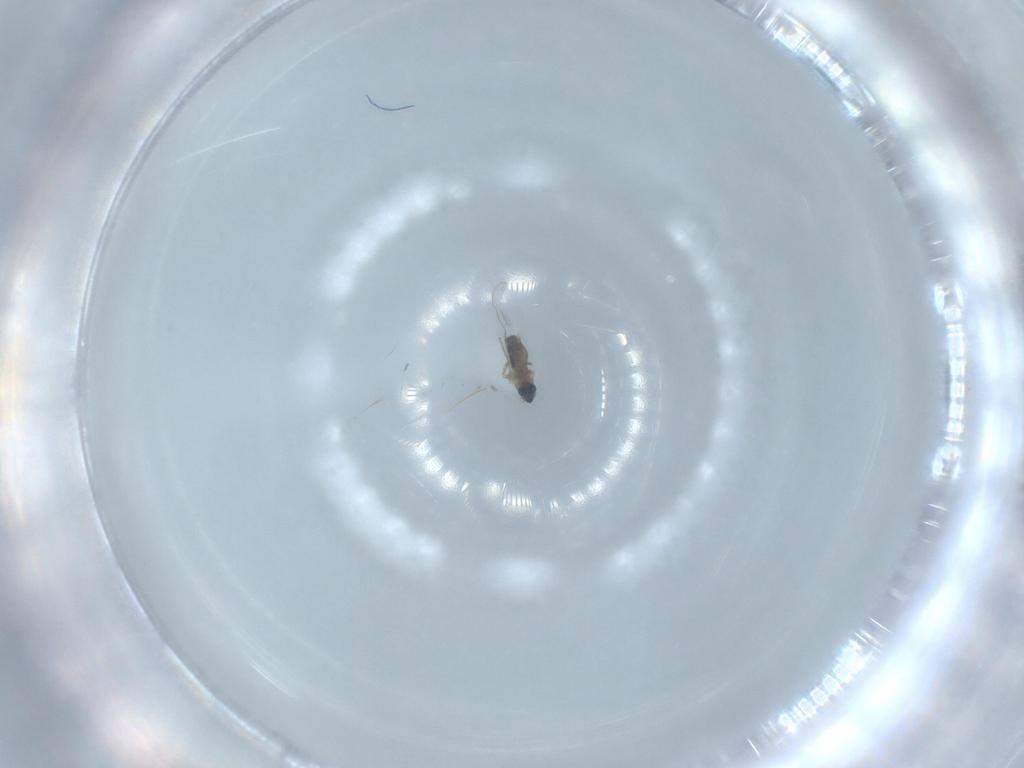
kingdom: Animalia
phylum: Arthropoda
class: Insecta
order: Diptera
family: Cecidomyiidae
